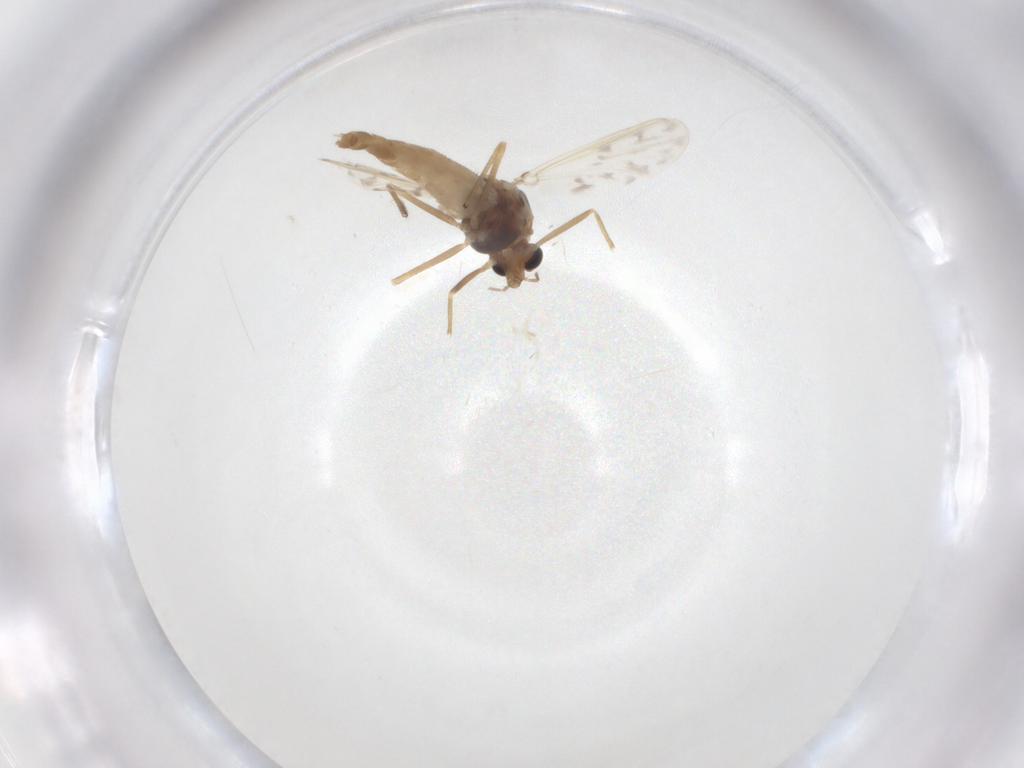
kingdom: Animalia
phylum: Arthropoda
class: Insecta
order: Diptera
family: Chironomidae
